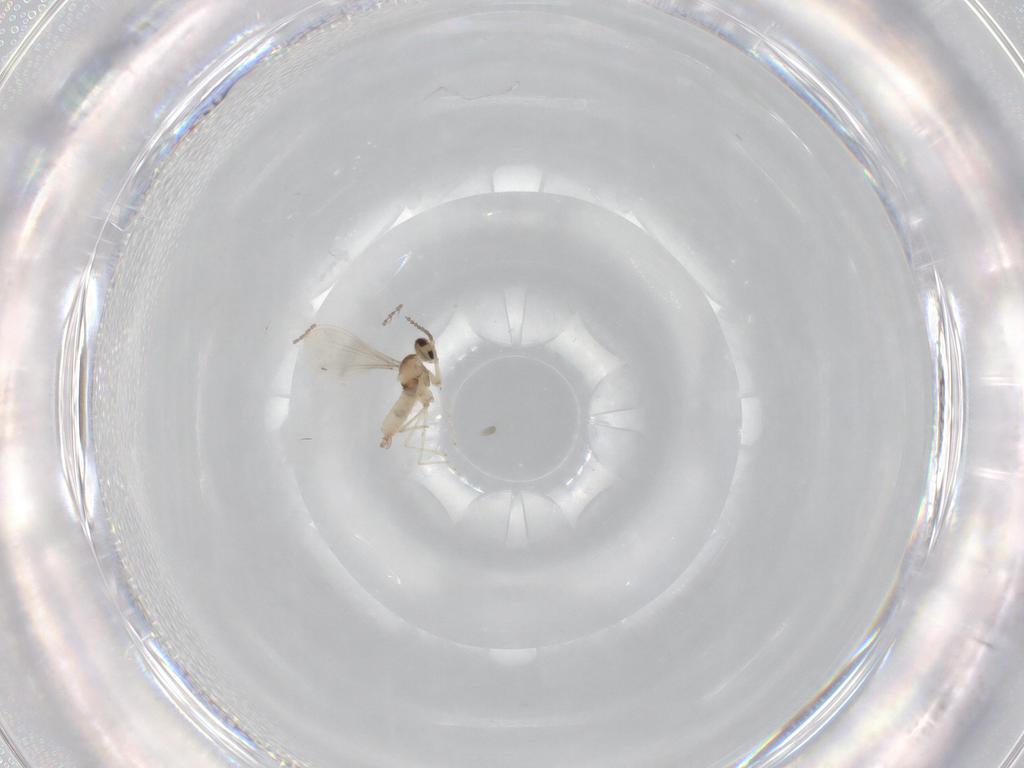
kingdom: Animalia
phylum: Arthropoda
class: Insecta
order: Diptera
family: Cecidomyiidae
